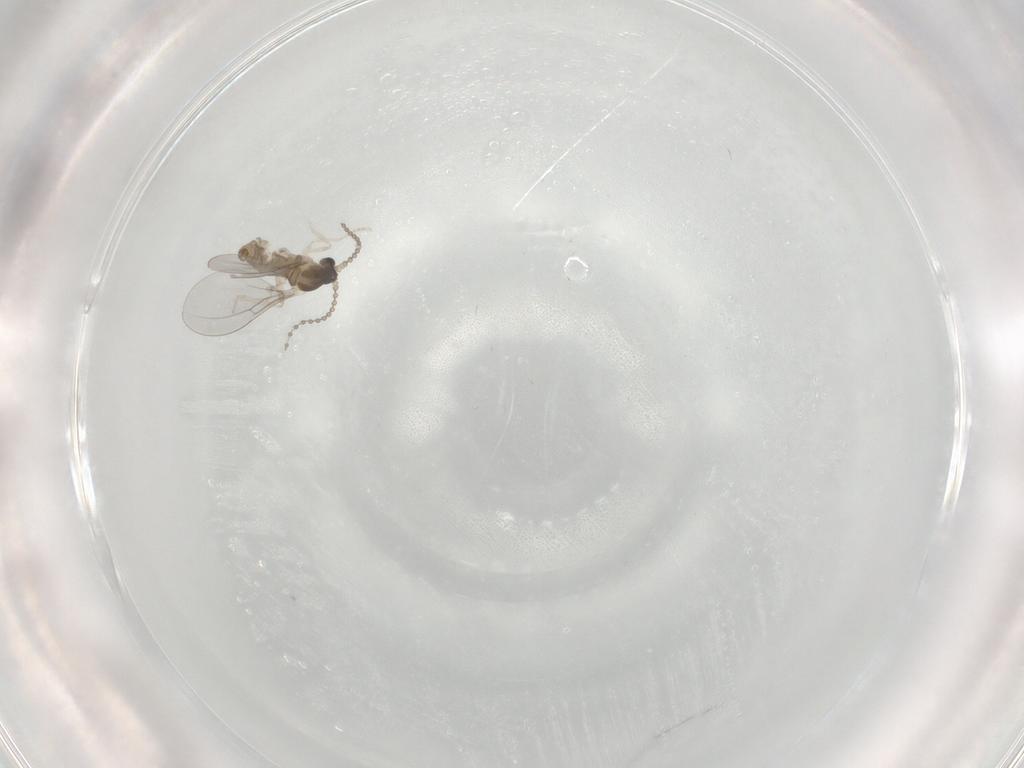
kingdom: Animalia
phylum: Arthropoda
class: Insecta
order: Diptera
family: Cecidomyiidae
